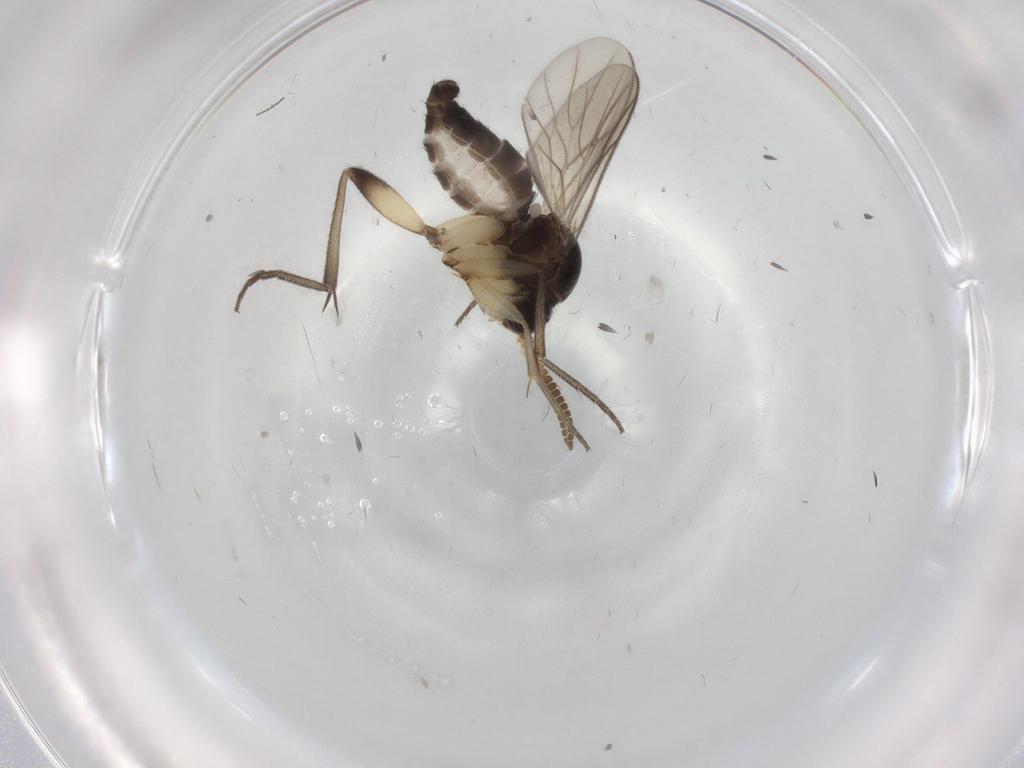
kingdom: Animalia
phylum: Arthropoda
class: Insecta
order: Diptera
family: Mycetophilidae
